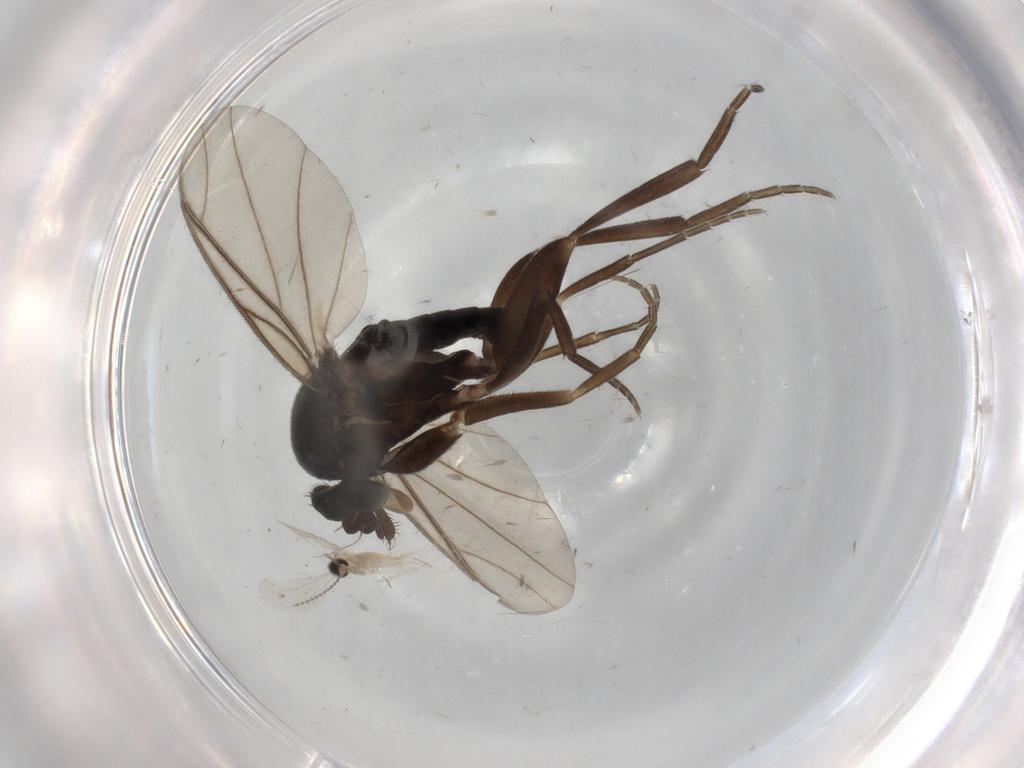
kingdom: Animalia
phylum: Arthropoda
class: Insecta
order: Diptera
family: Phoridae
